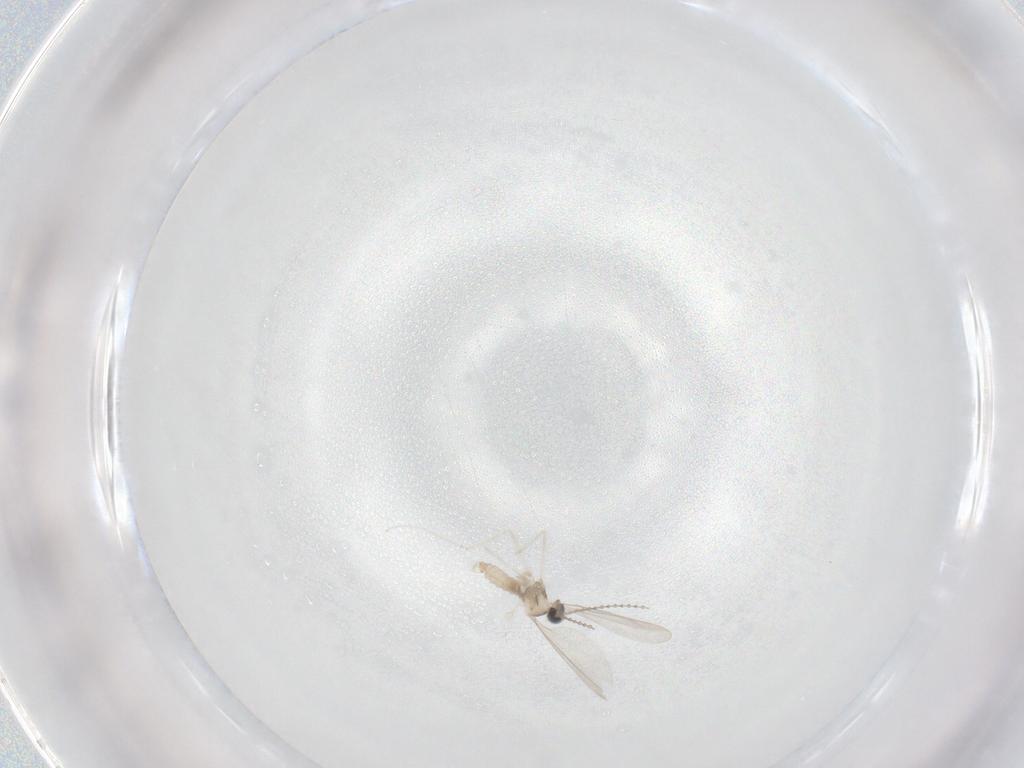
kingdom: Animalia
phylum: Arthropoda
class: Insecta
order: Diptera
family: Cecidomyiidae
